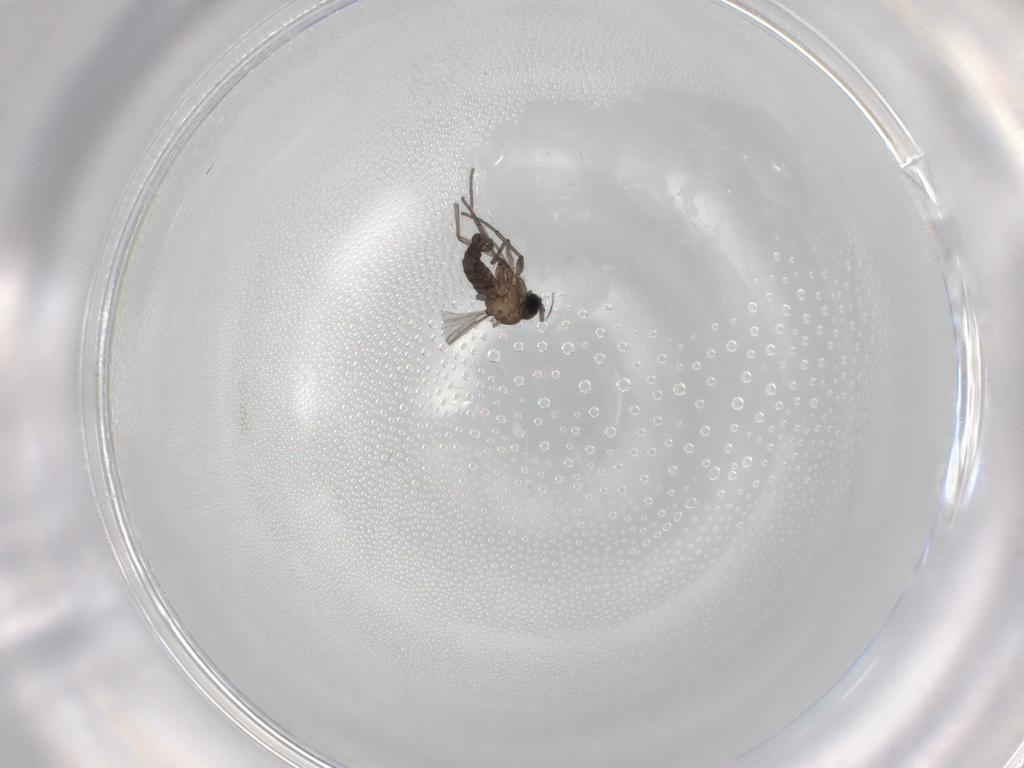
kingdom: Animalia
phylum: Arthropoda
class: Insecta
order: Diptera
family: Sciaridae
